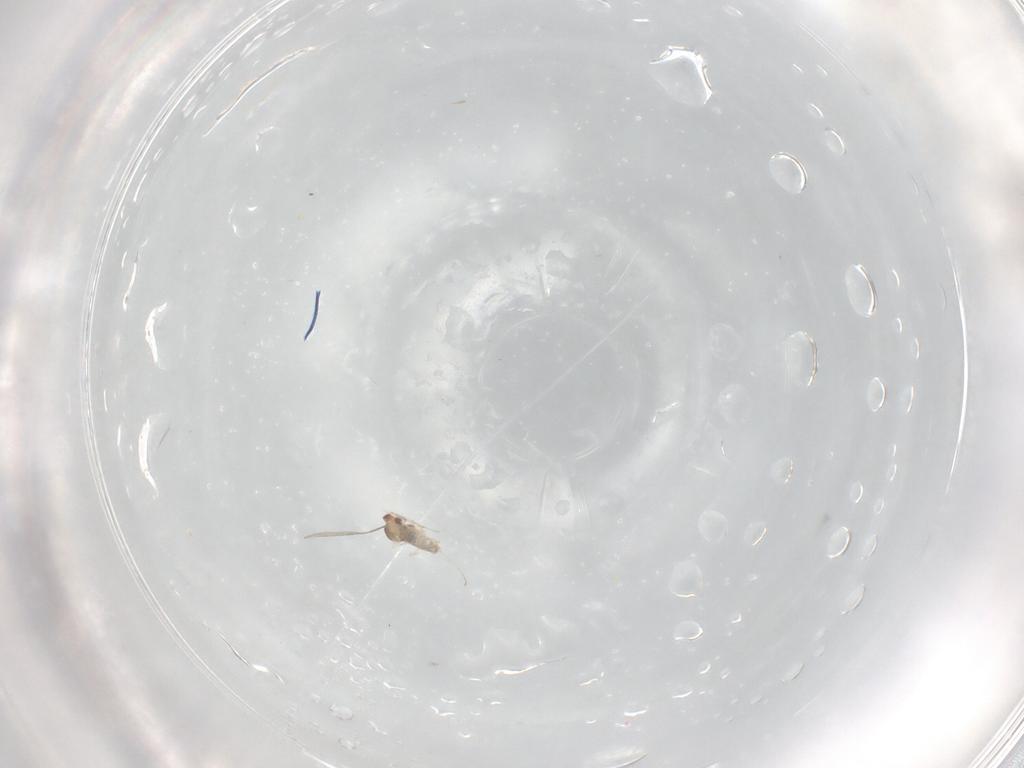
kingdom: Animalia
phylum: Arthropoda
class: Insecta
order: Diptera
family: Cecidomyiidae
